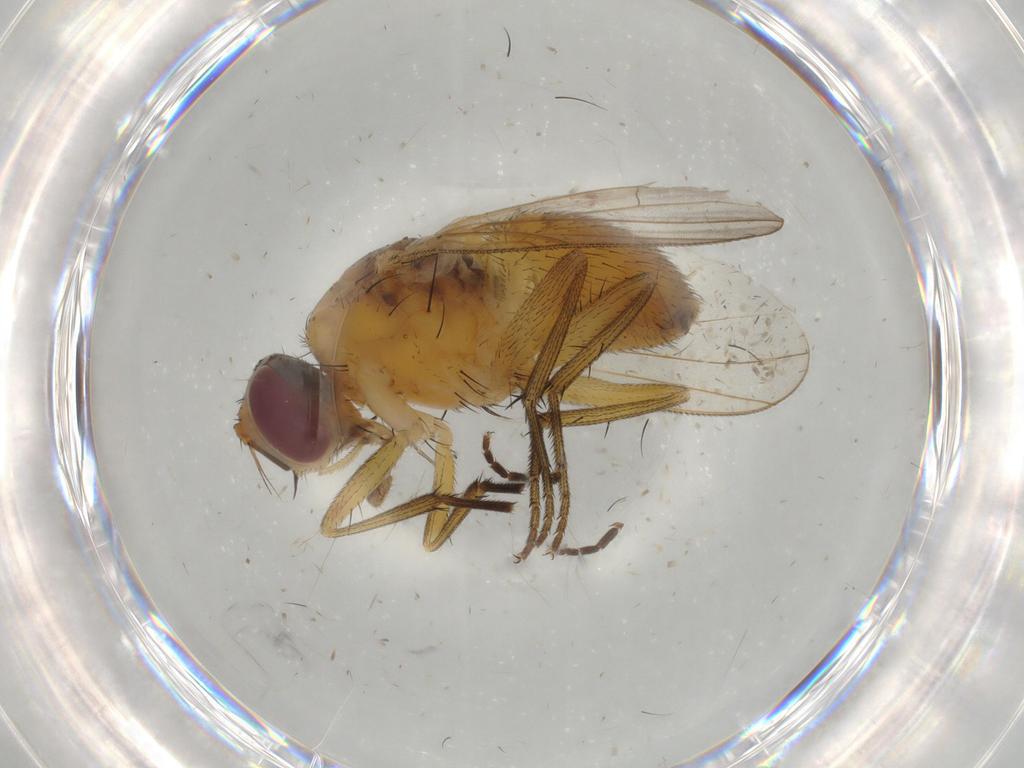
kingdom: Animalia
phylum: Arthropoda
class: Insecta
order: Diptera
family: Muscidae
